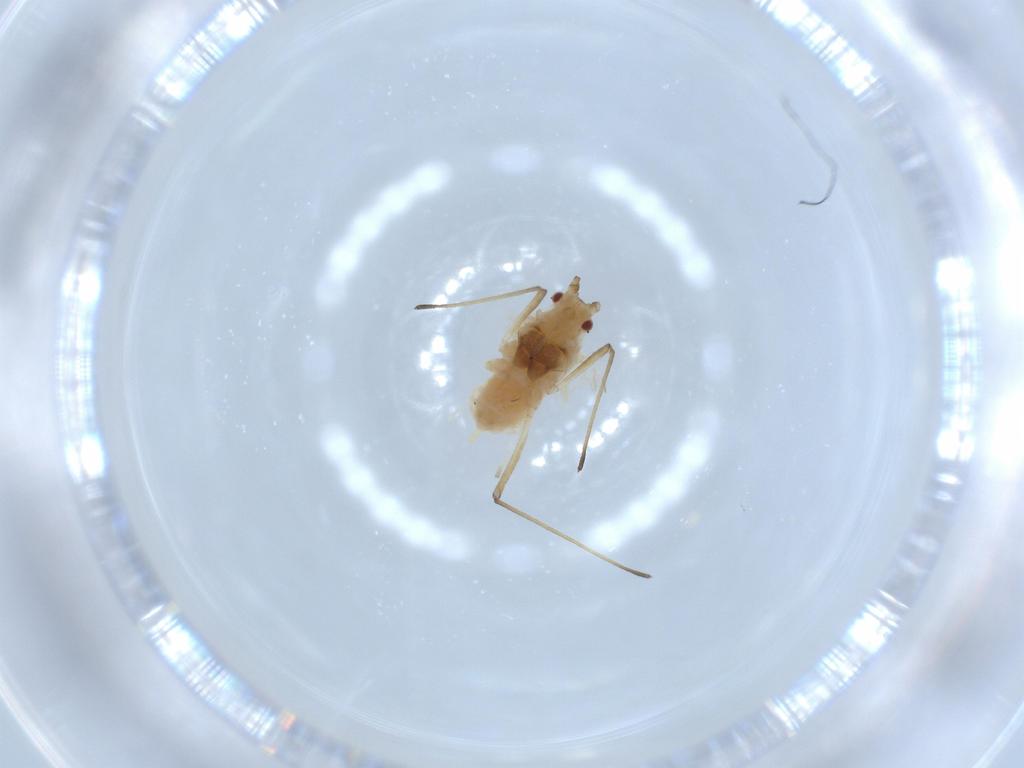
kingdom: Animalia
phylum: Arthropoda
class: Insecta
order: Hemiptera
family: Aphididae
